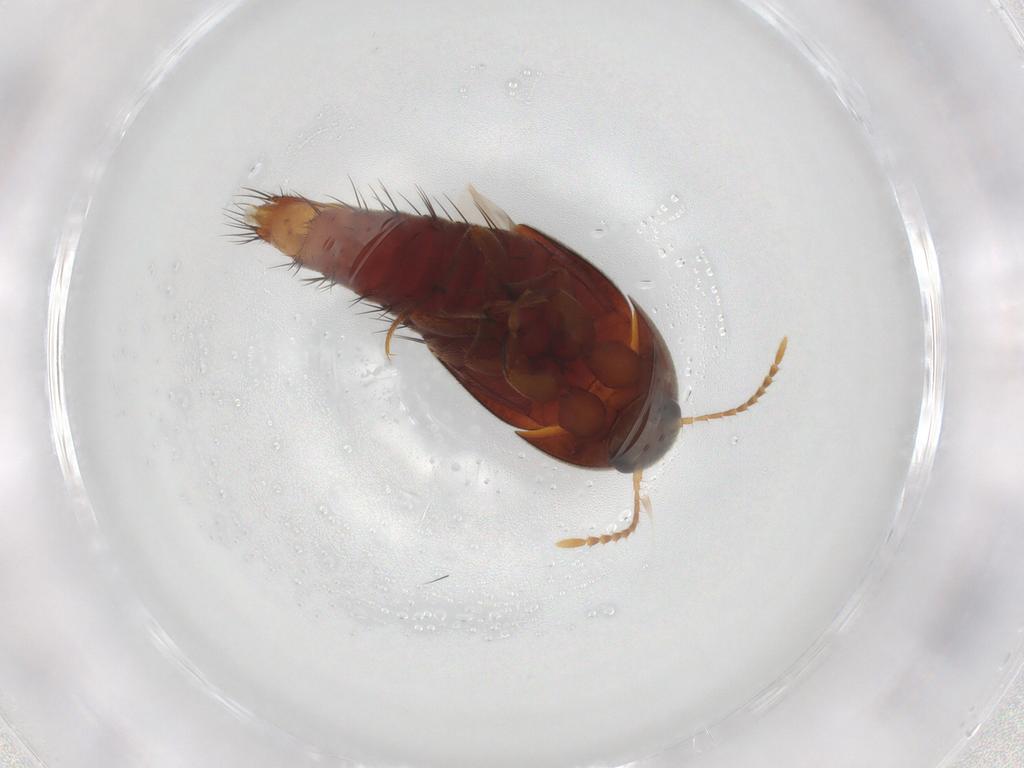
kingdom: Animalia
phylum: Arthropoda
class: Insecta
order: Coleoptera
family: Staphylinidae
